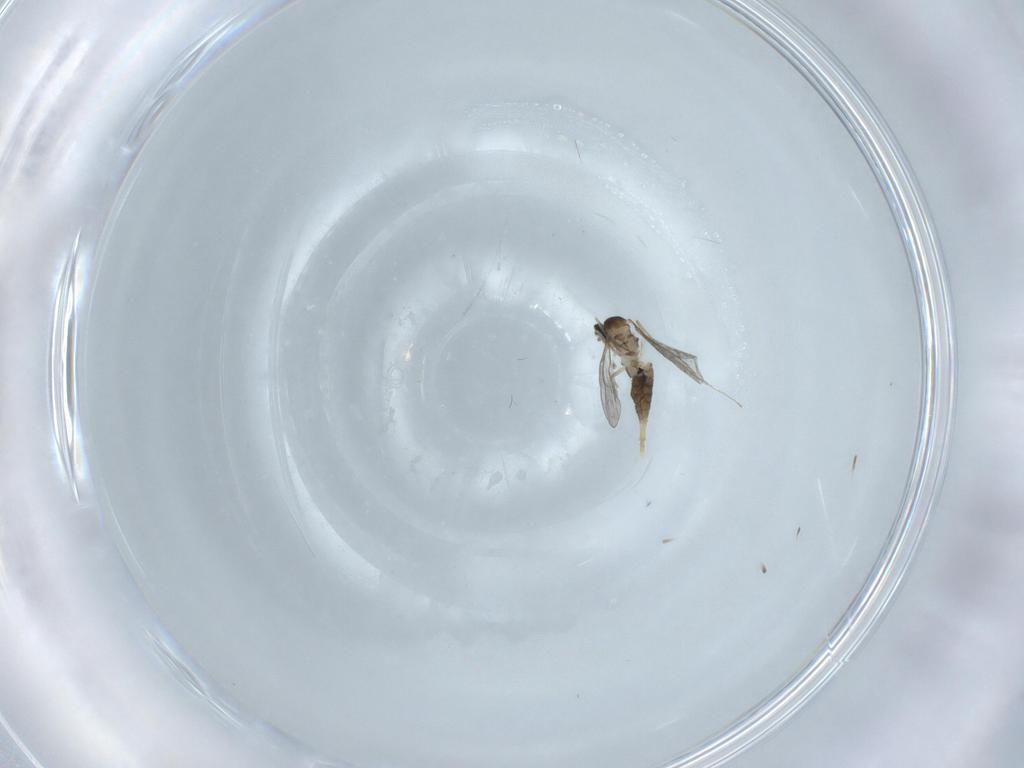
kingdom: Animalia
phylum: Arthropoda
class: Insecta
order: Diptera
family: Cecidomyiidae
